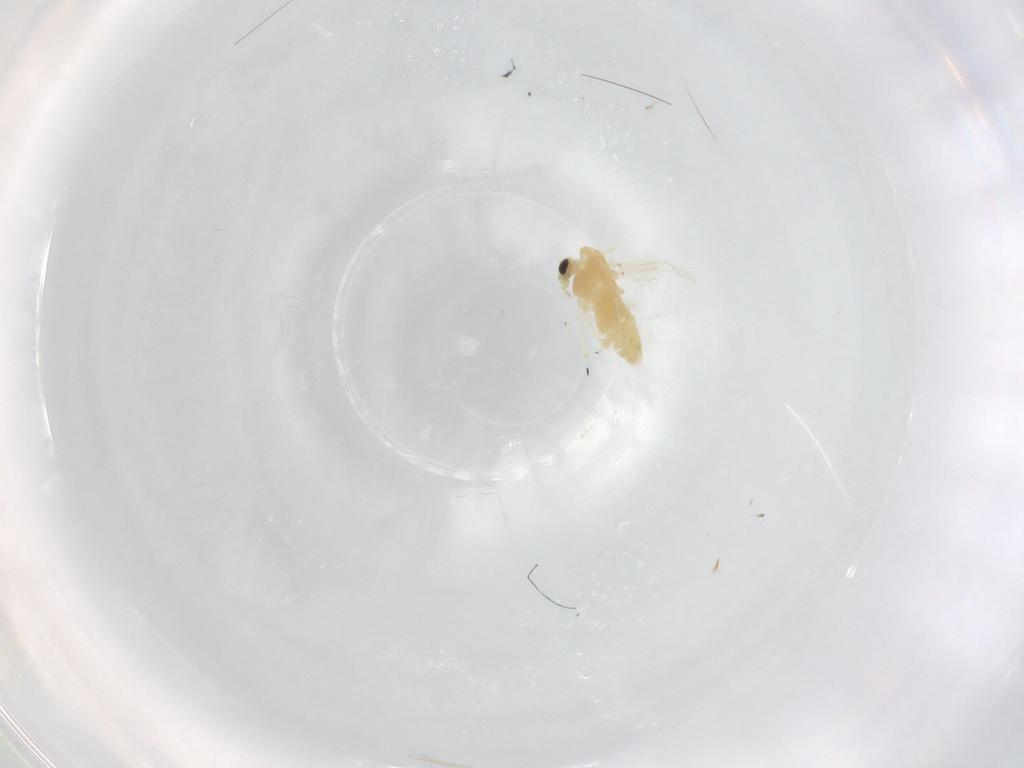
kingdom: Animalia
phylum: Arthropoda
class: Insecta
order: Diptera
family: Chironomidae
